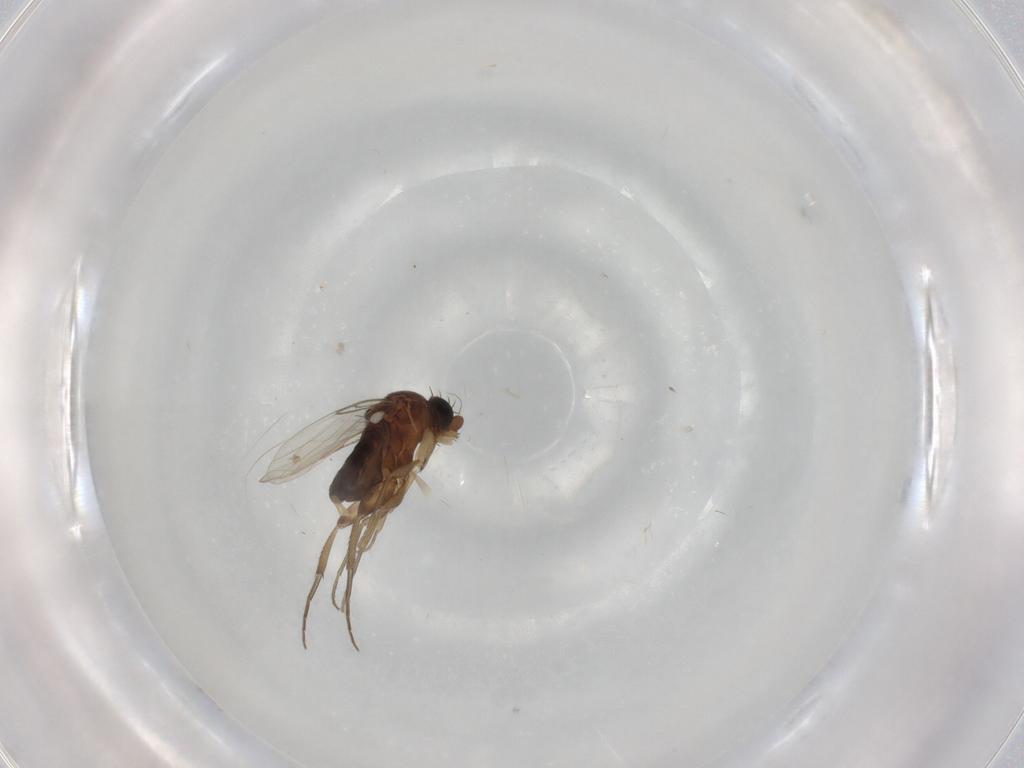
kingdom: Animalia
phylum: Arthropoda
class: Insecta
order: Diptera
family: Phoridae
